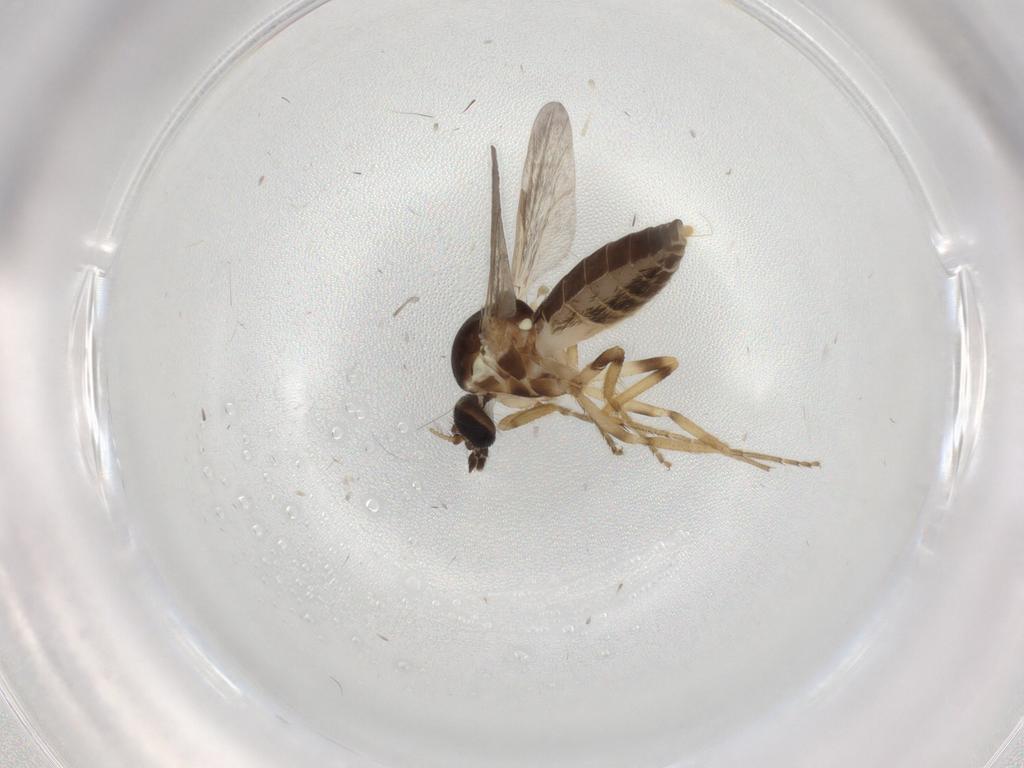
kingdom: Animalia
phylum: Arthropoda
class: Insecta
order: Diptera
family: Ceratopogonidae
